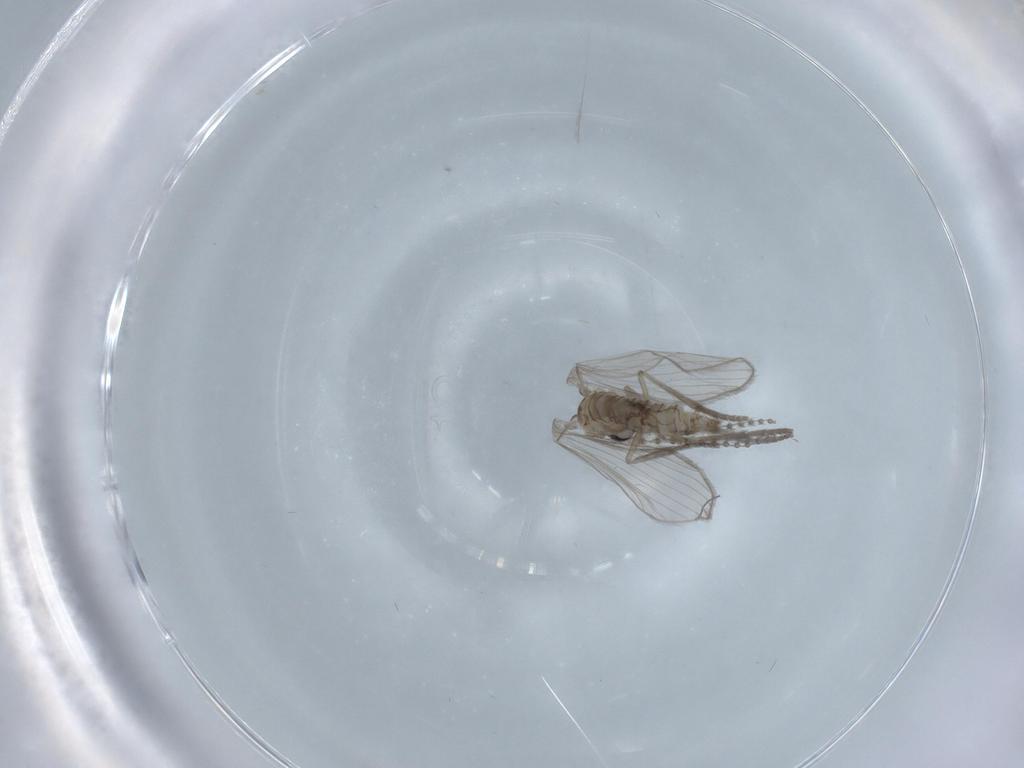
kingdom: Animalia
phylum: Arthropoda
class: Insecta
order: Diptera
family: Psychodidae
